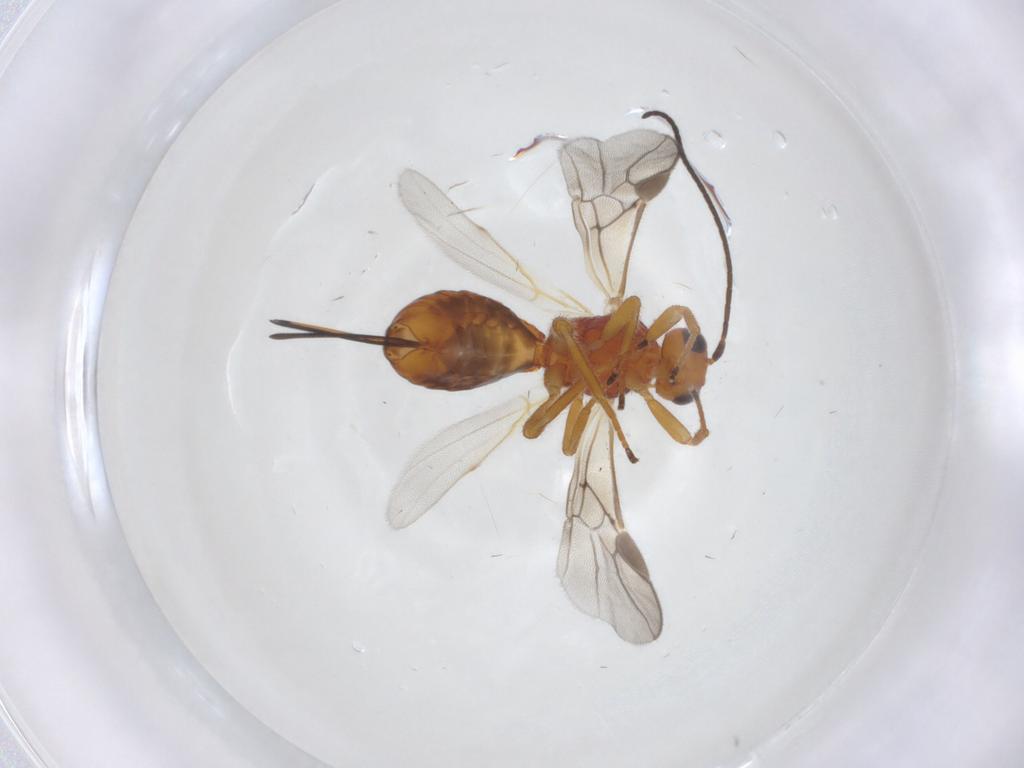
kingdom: Animalia
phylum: Arthropoda
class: Insecta
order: Hymenoptera
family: Braconidae
